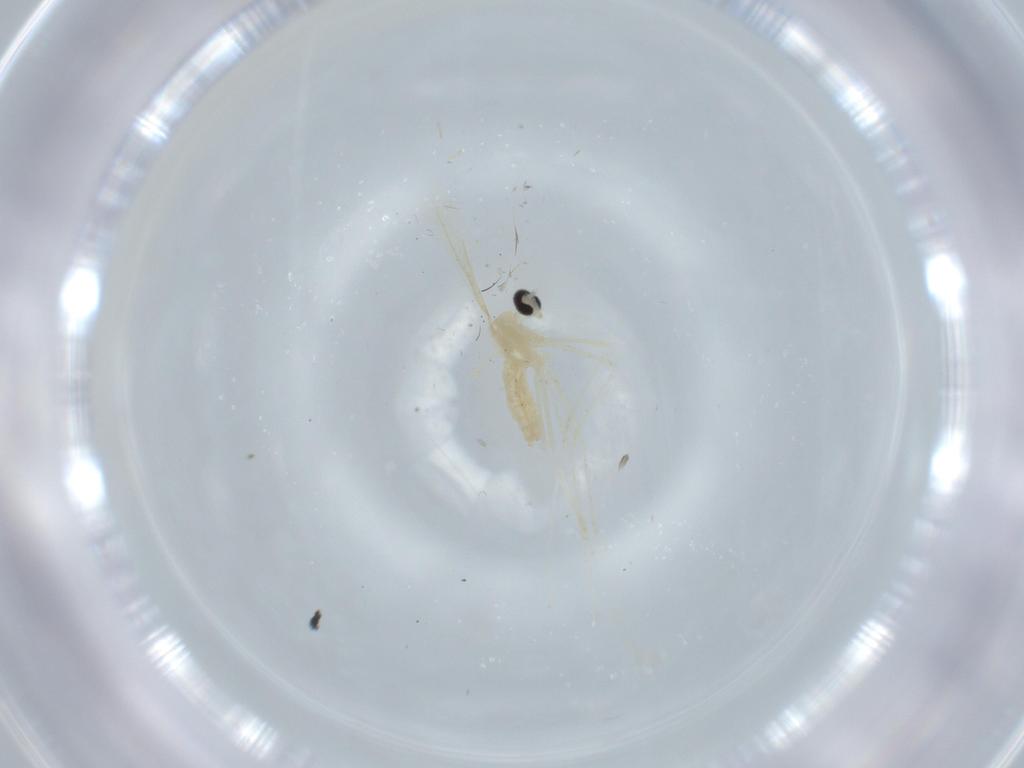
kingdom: Animalia
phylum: Arthropoda
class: Insecta
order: Diptera
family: Cecidomyiidae
